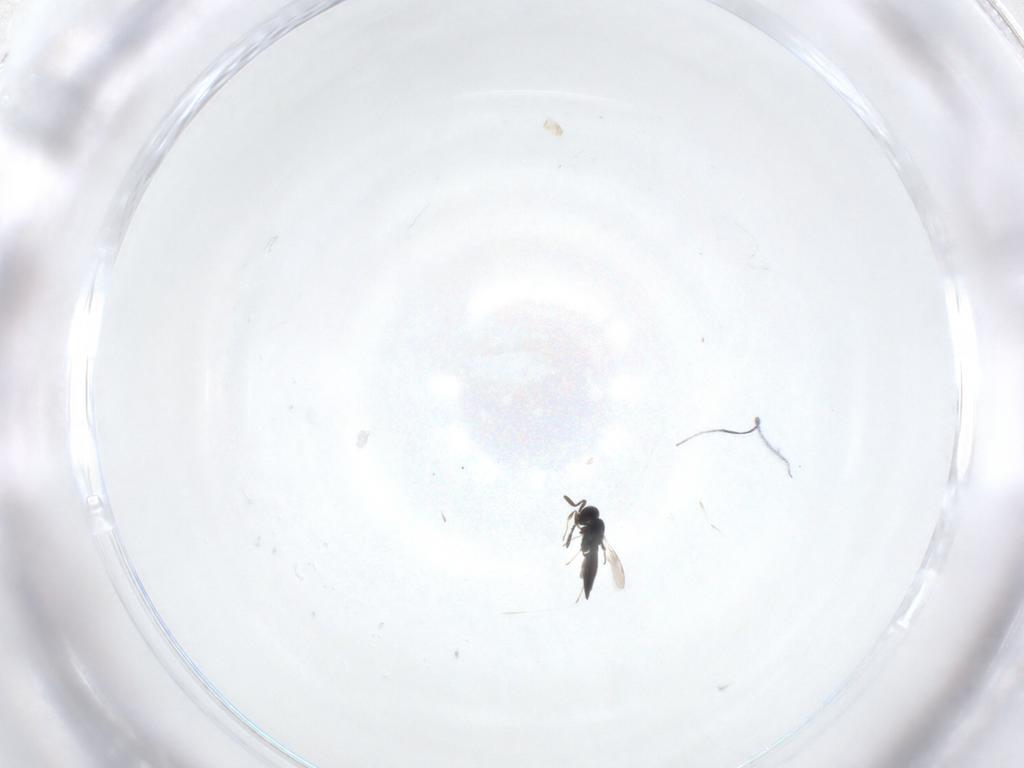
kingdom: Animalia
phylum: Arthropoda
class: Insecta
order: Hymenoptera
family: Scelionidae
